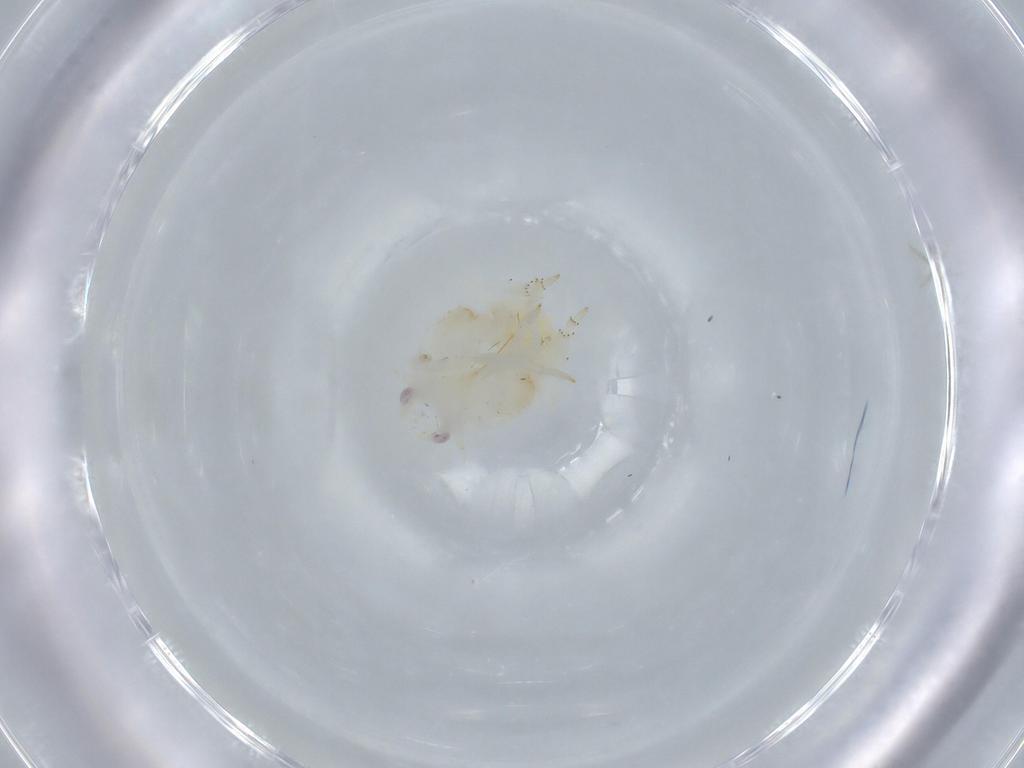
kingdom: Animalia
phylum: Arthropoda
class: Insecta
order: Hemiptera
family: Flatidae
